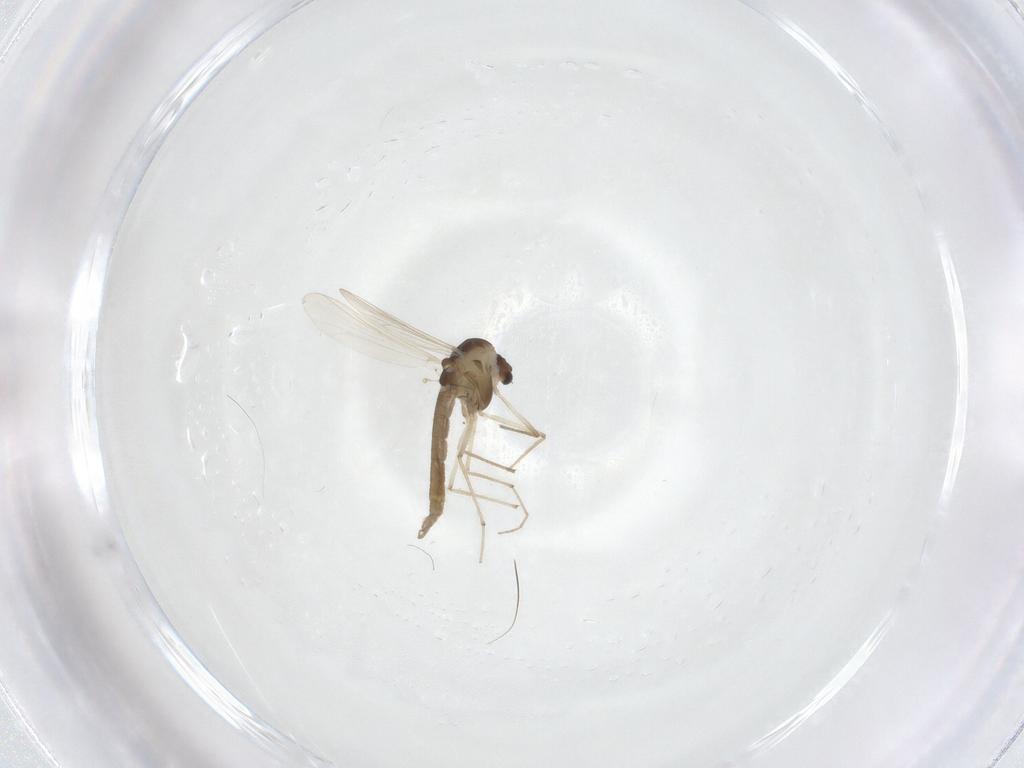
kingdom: Animalia
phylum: Arthropoda
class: Insecta
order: Diptera
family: Chironomidae
